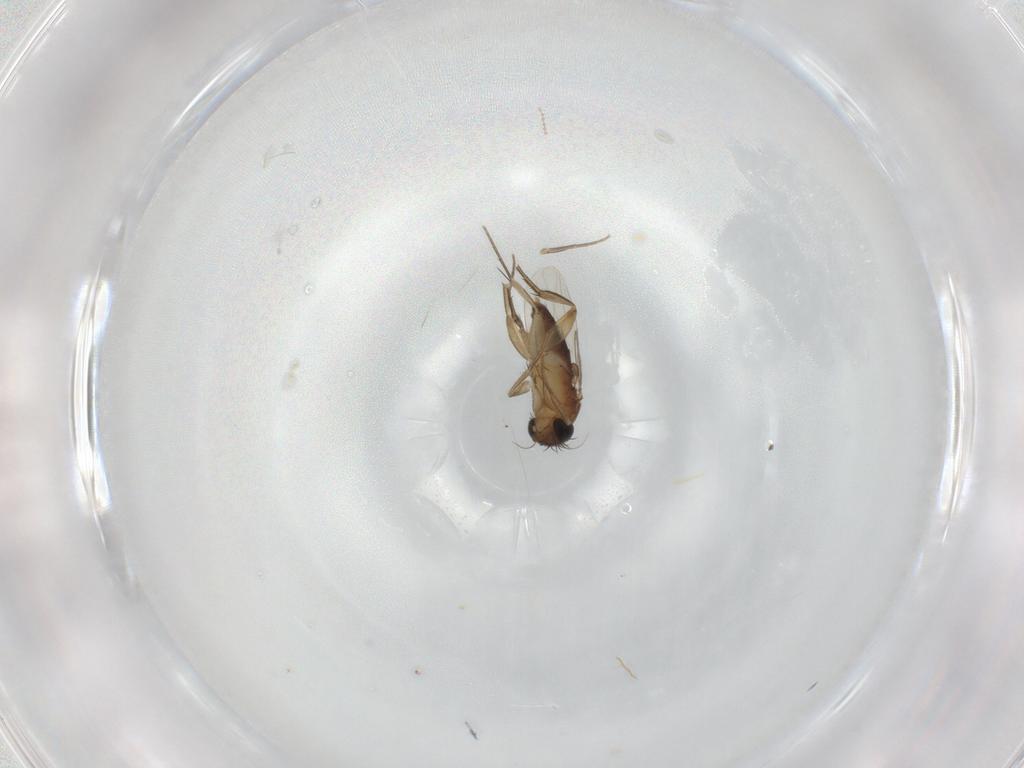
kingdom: Animalia
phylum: Arthropoda
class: Insecta
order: Diptera
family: Phoridae
